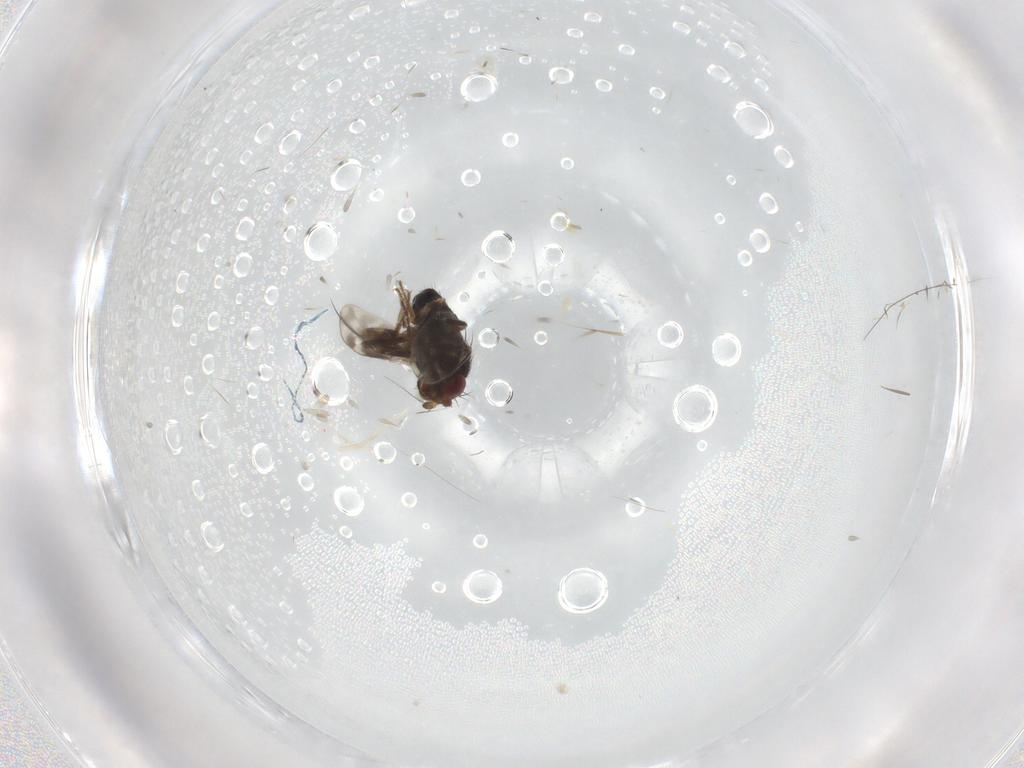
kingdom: Animalia
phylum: Arthropoda
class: Insecta
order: Diptera
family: Sphaeroceridae
